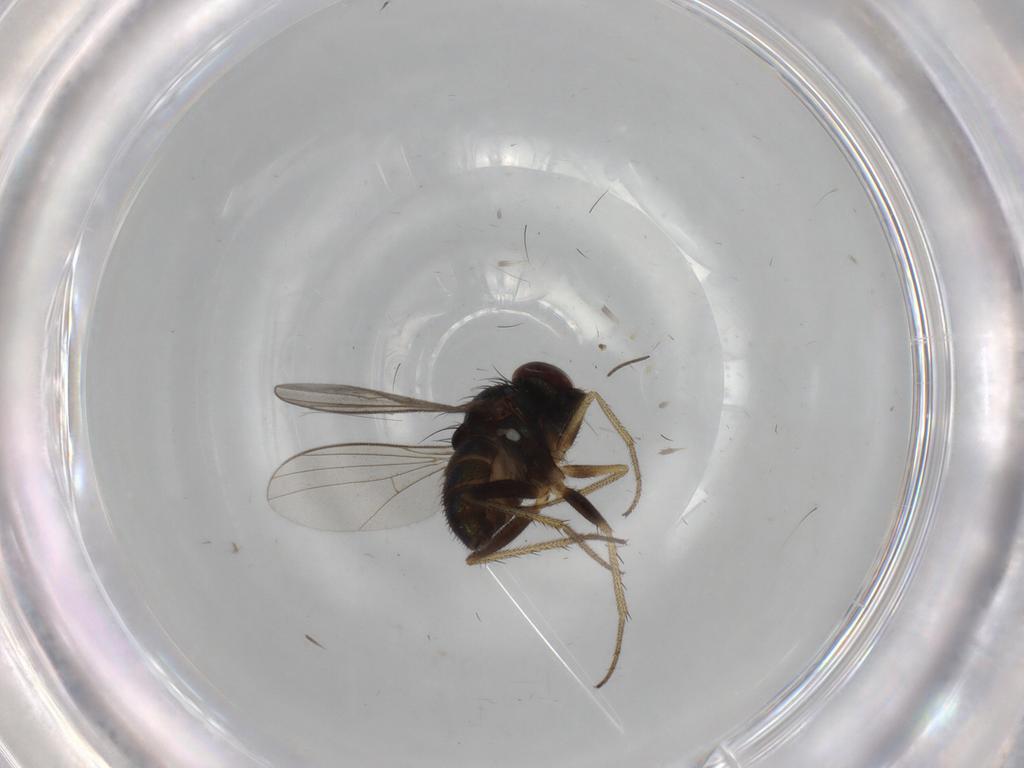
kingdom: Animalia
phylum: Arthropoda
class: Insecta
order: Diptera
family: Dolichopodidae
